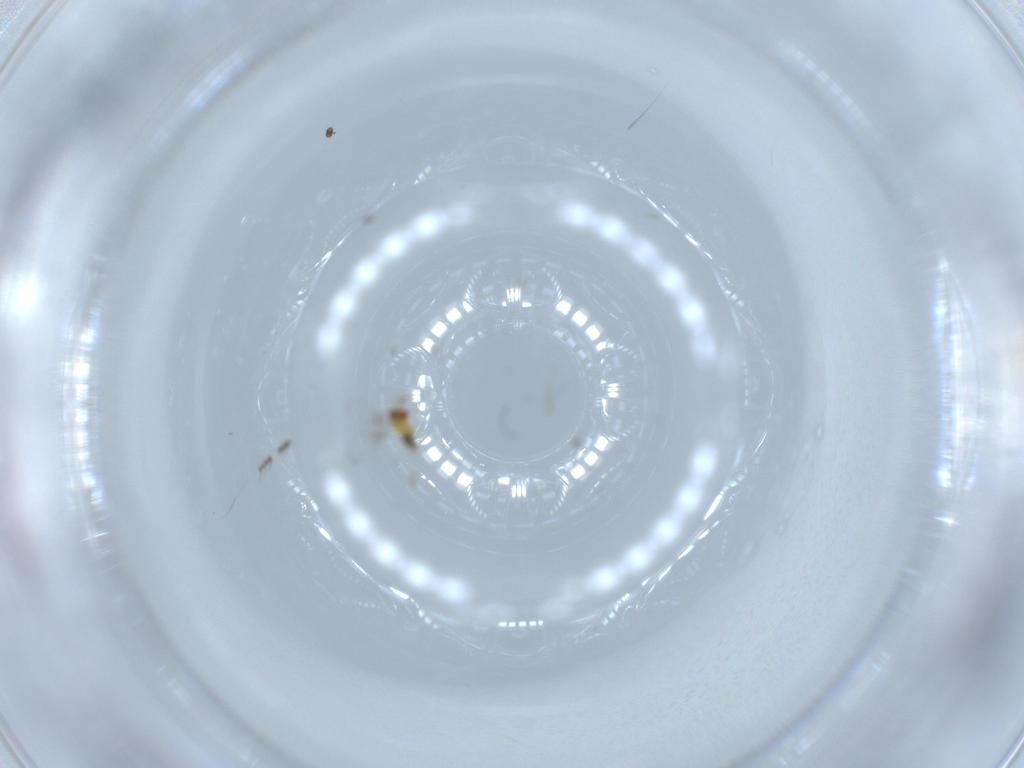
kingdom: Animalia
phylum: Arthropoda
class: Insecta
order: Hymenoptera
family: Trichogrammatidae
